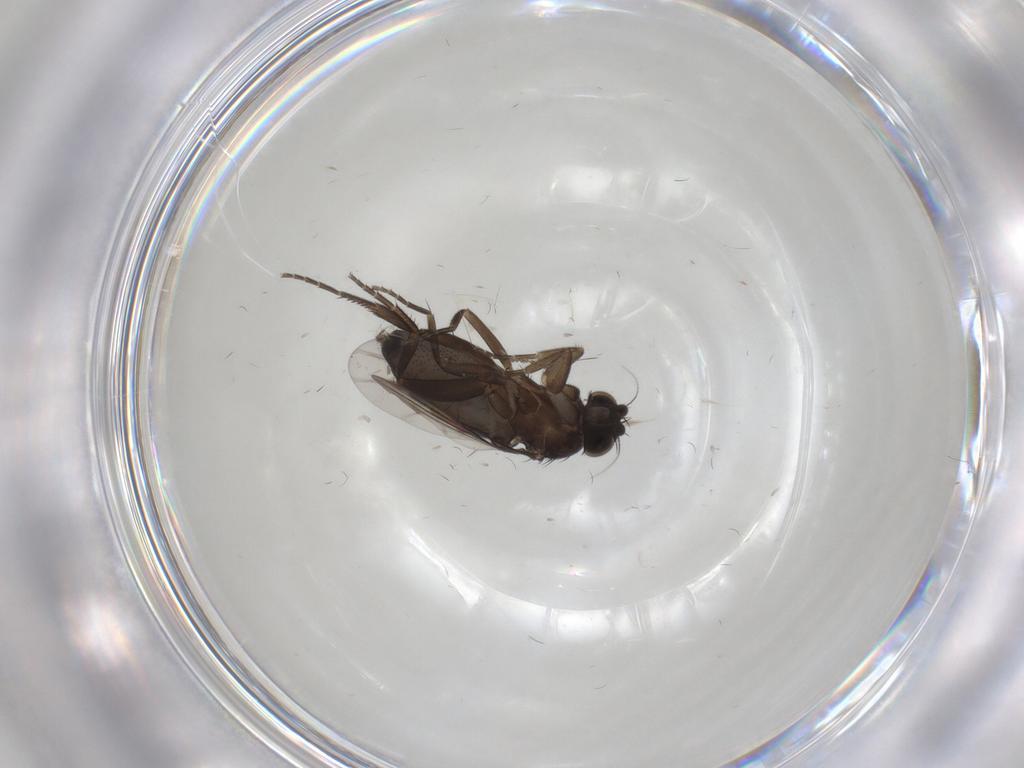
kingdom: Animalia
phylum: Arthropoda
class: Insecta
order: Diptera
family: Phoridae
